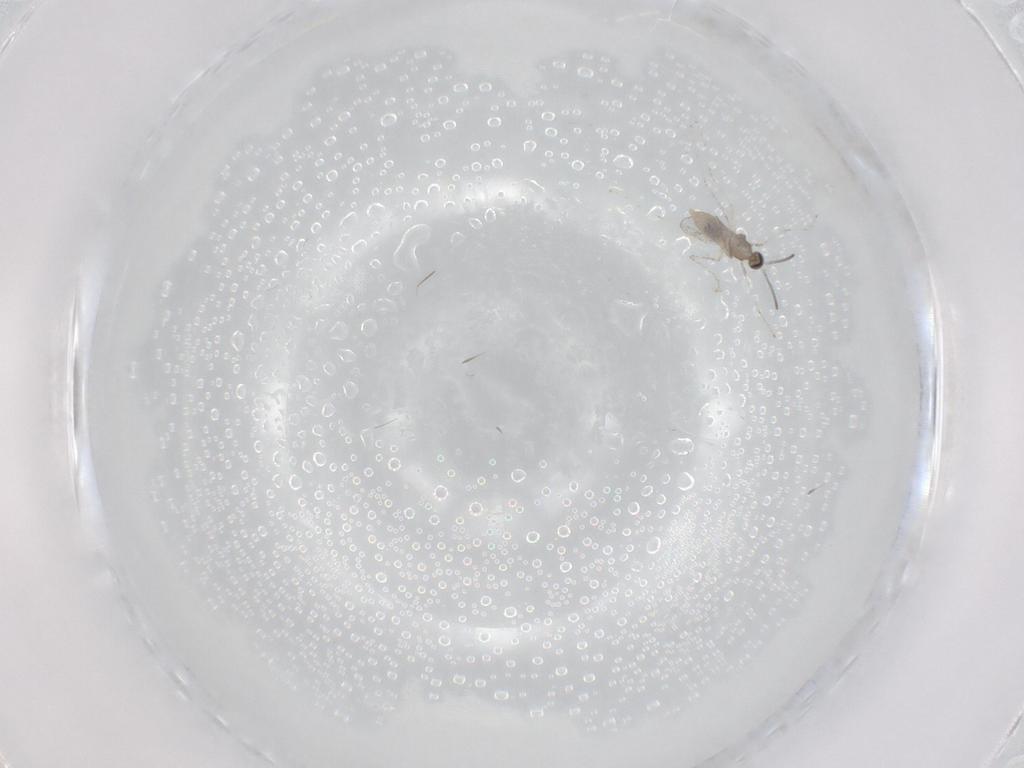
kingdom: Animalia
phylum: Arthropoda
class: Insecta
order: Diptera
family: Cecidomyiidae
